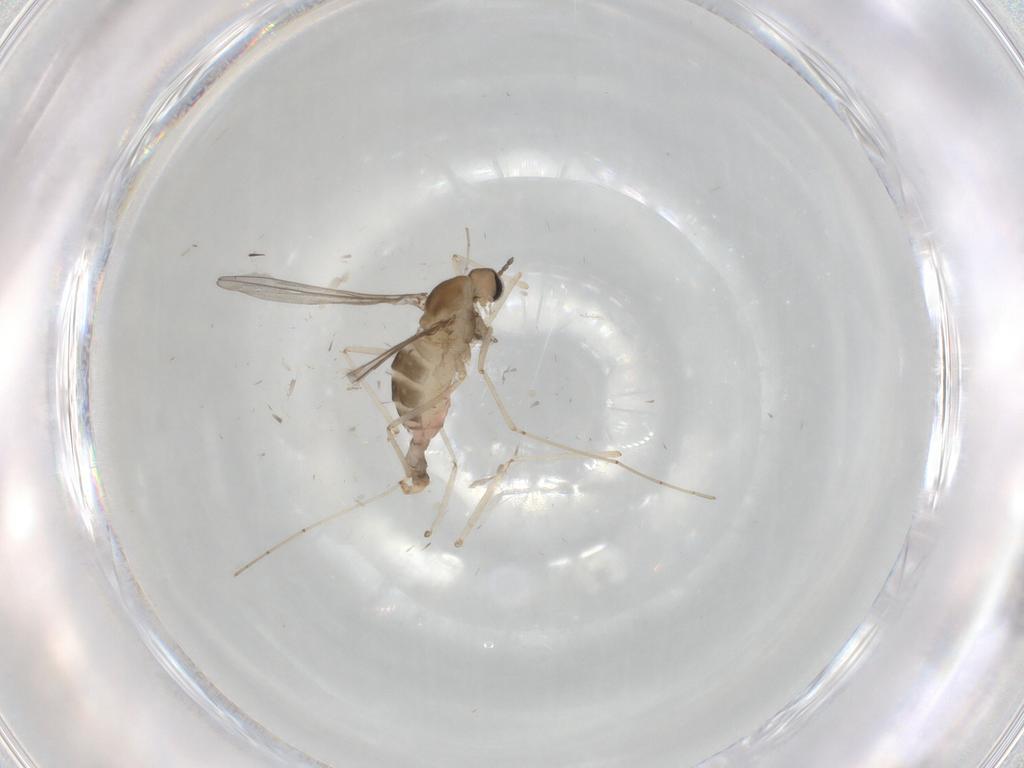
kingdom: Animalia
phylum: Arthropoda
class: Insecta
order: Diptera
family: Cecidomyiidae
